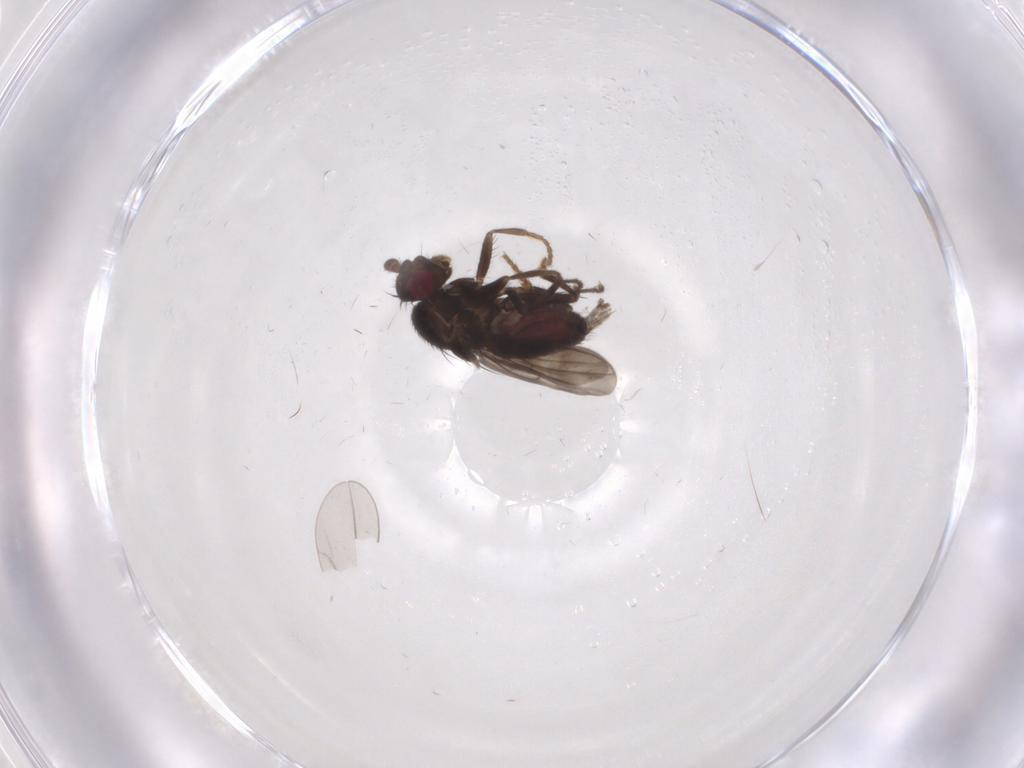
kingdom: Animalia
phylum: Arthropoda
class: Insecta
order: Diptera
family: Sphaeroceridae
